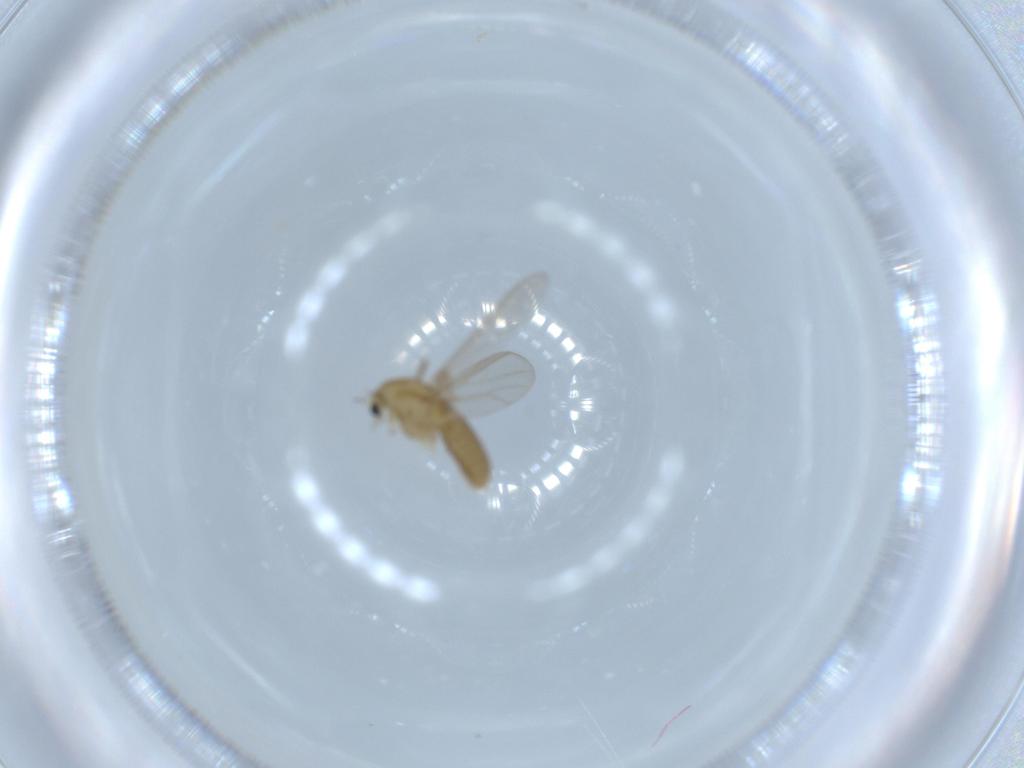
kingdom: Animalia
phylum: Arthropoda
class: Insecta
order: Diptera
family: Chironomidae
